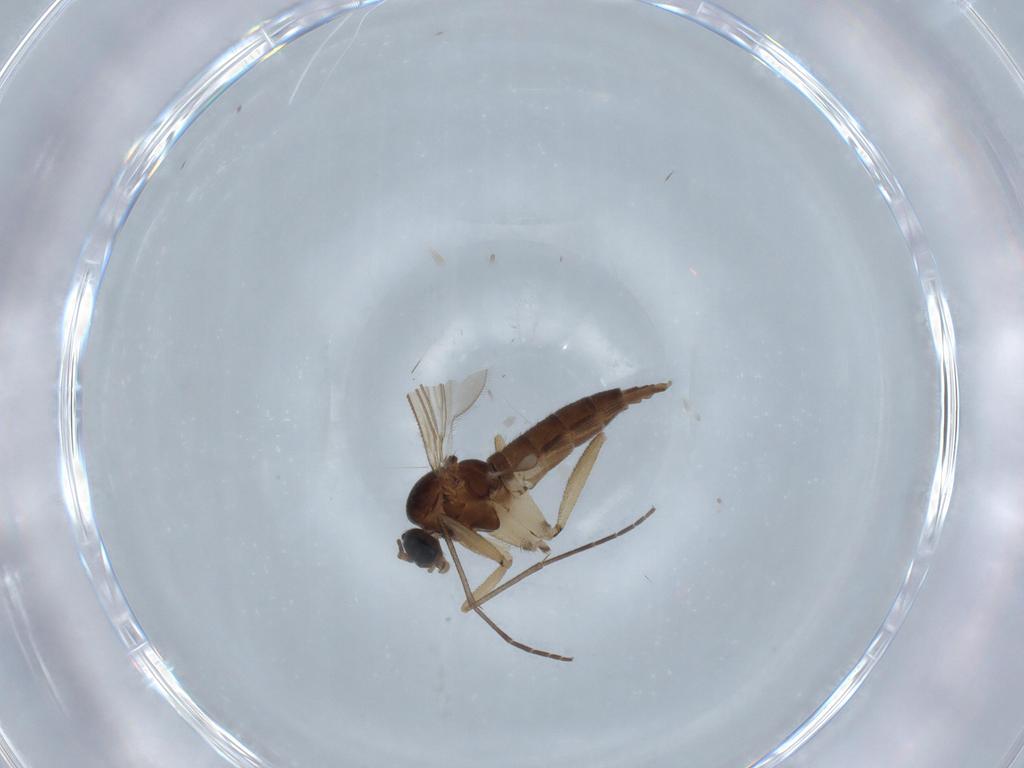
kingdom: Animalia
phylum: Arthropoda
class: Insecta
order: Diptera
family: Sciaridae
